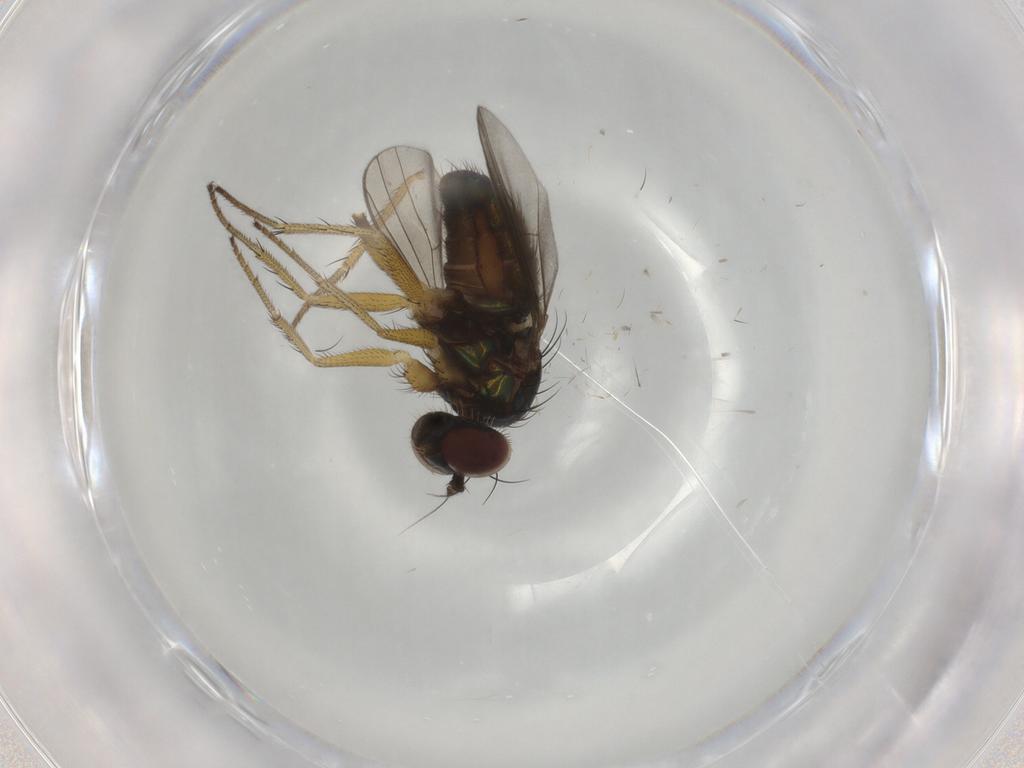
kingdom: Animalia
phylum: Arthropoda
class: Insecta
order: Diptera
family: Dolichopodidae
